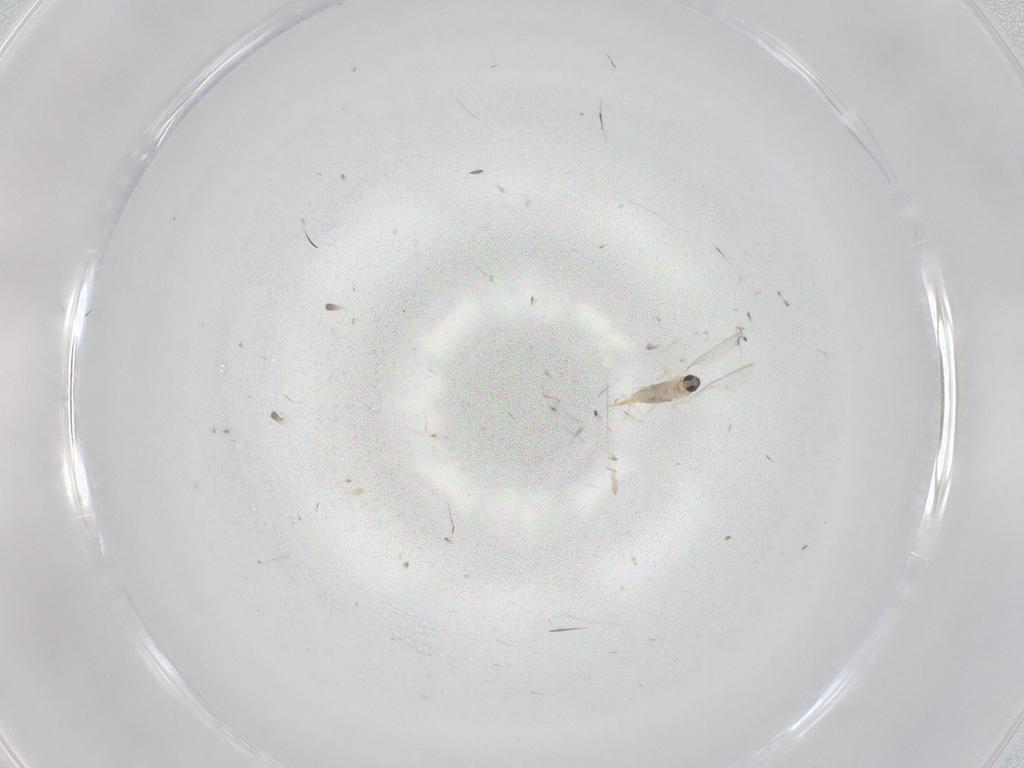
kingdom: Animalia
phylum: Arthropoda
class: Insecta
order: Diptera
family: Cecidomyiidae
